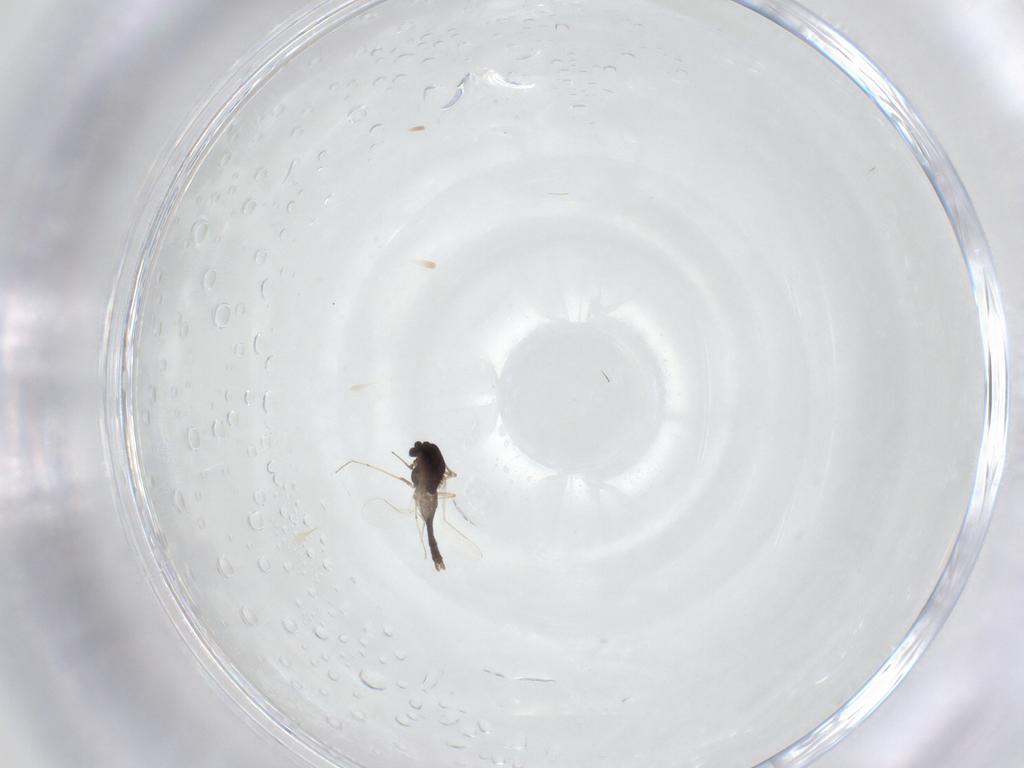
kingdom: Animalia
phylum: Arthropoda
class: Insecta
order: Diptera
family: Chironomidae
